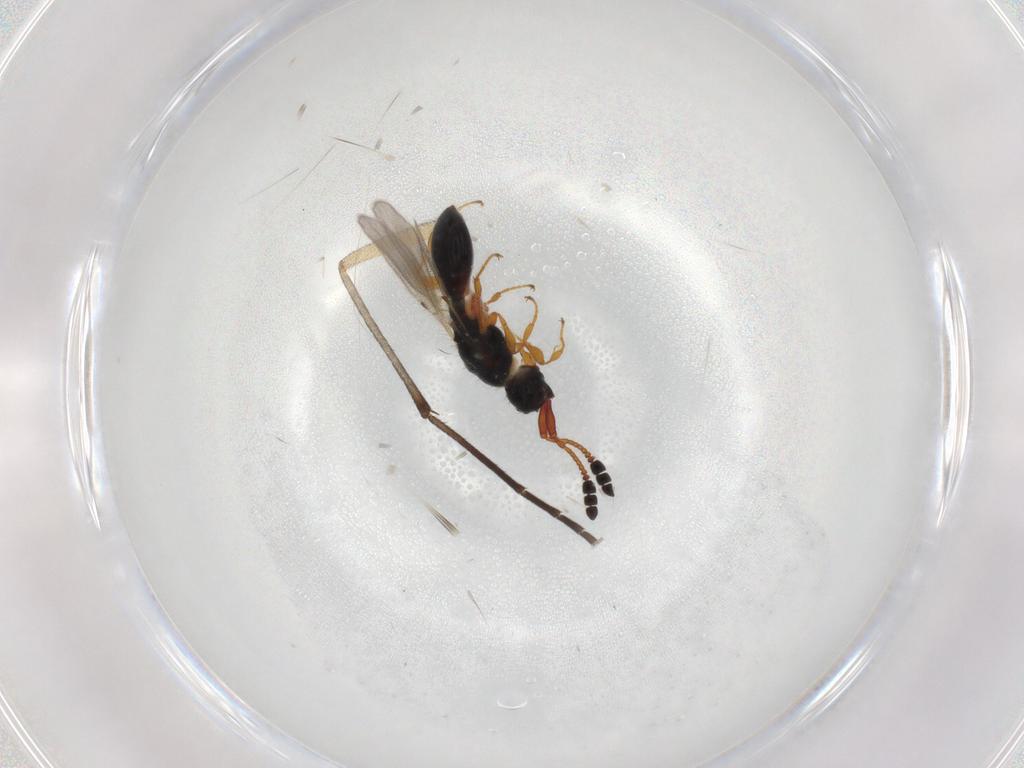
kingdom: Animalia
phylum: Arthropoda
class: Insecta
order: Hymenoptera
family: Diapriidae
